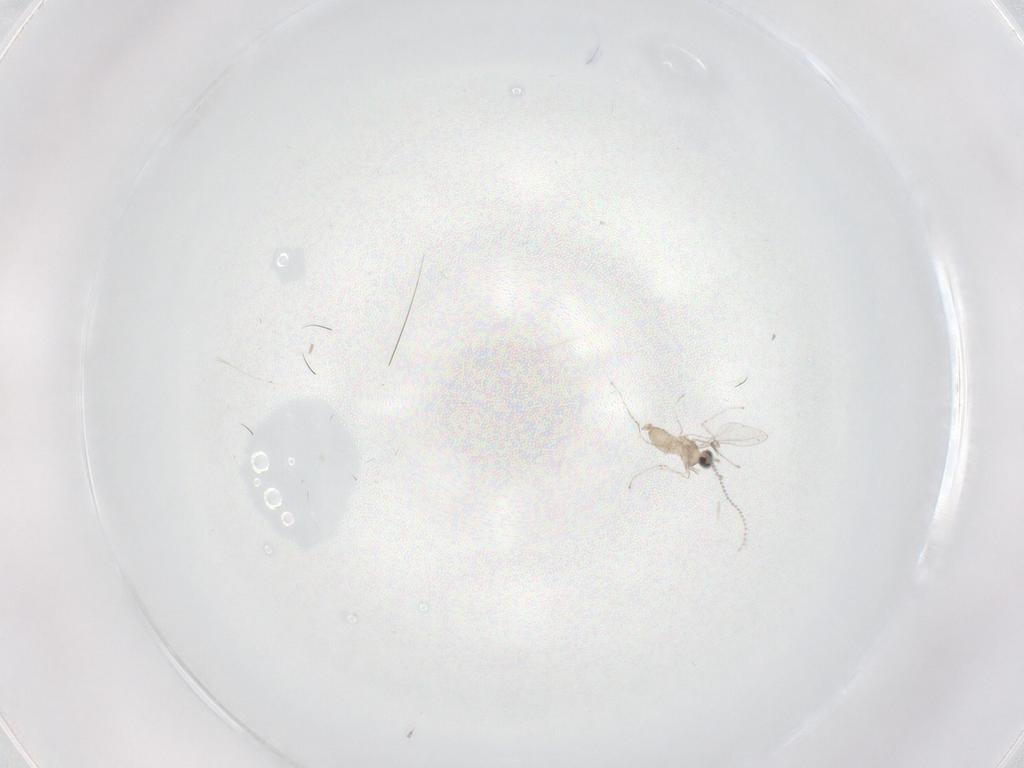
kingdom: Animalia
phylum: Arthropoda
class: Insecta
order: Diptera
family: Cecidomyiidae
